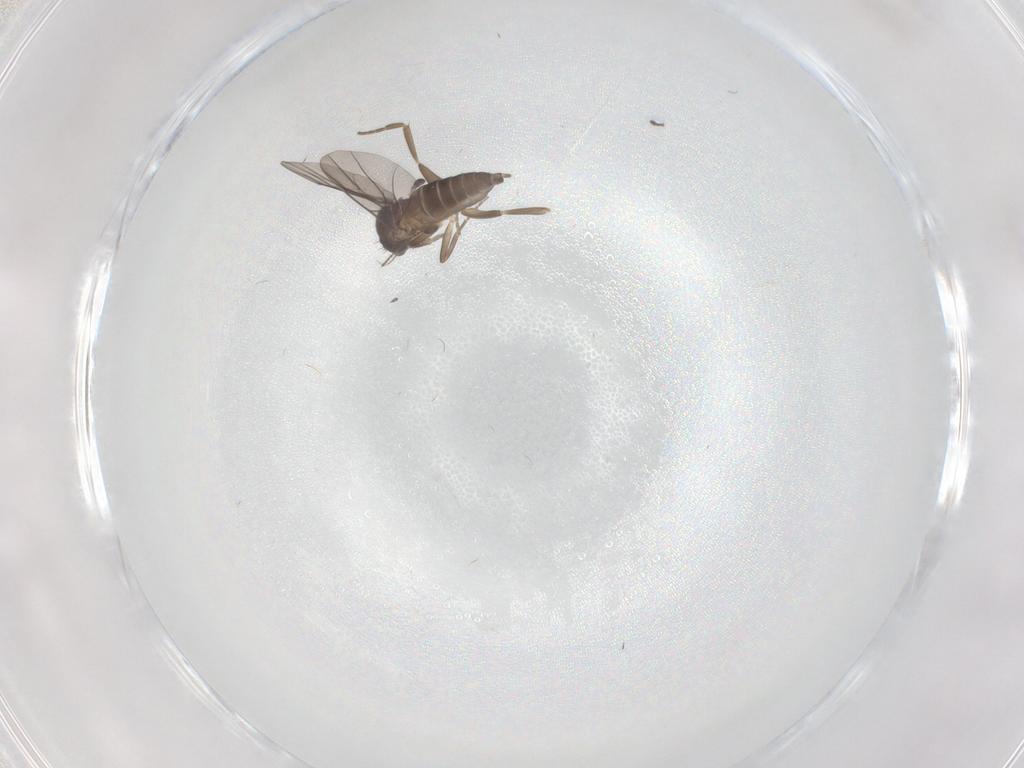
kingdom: Animalia
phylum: Arthropoda
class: Insecta
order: Diptera
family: Ceratopogonidae
